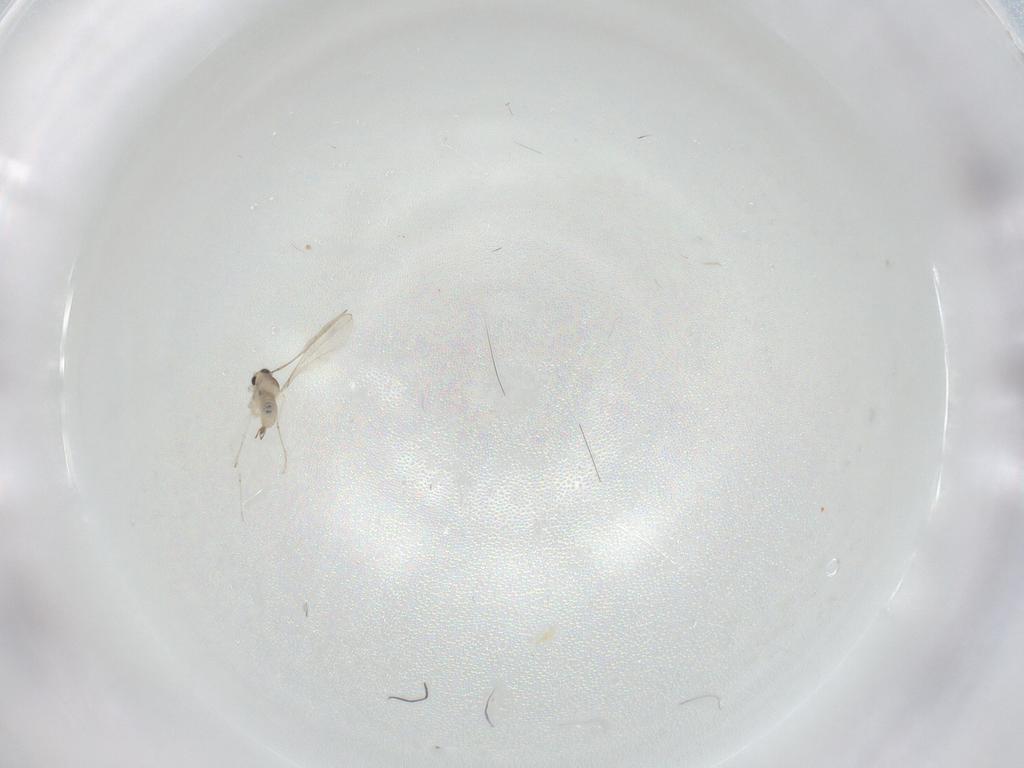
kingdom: Animalia
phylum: Arthropoda
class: Insecta
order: Diptera
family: Cecidomyiidae
